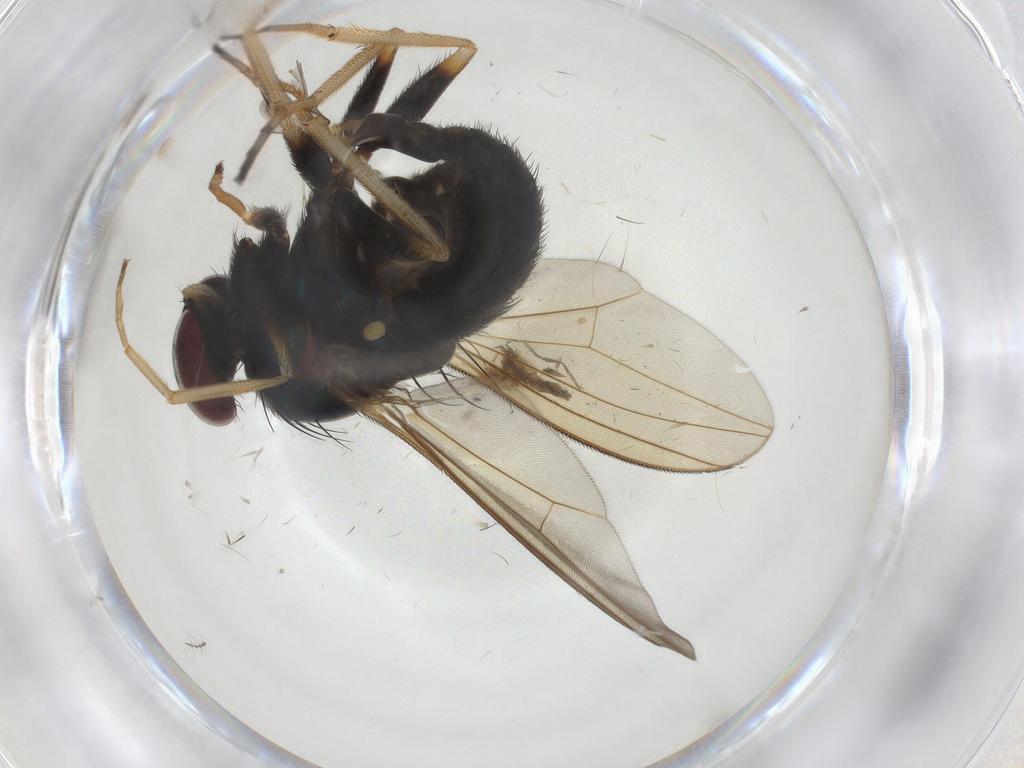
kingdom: Animalia
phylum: Arthropoda
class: Insecta
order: Diptera
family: Dolichopodidae
